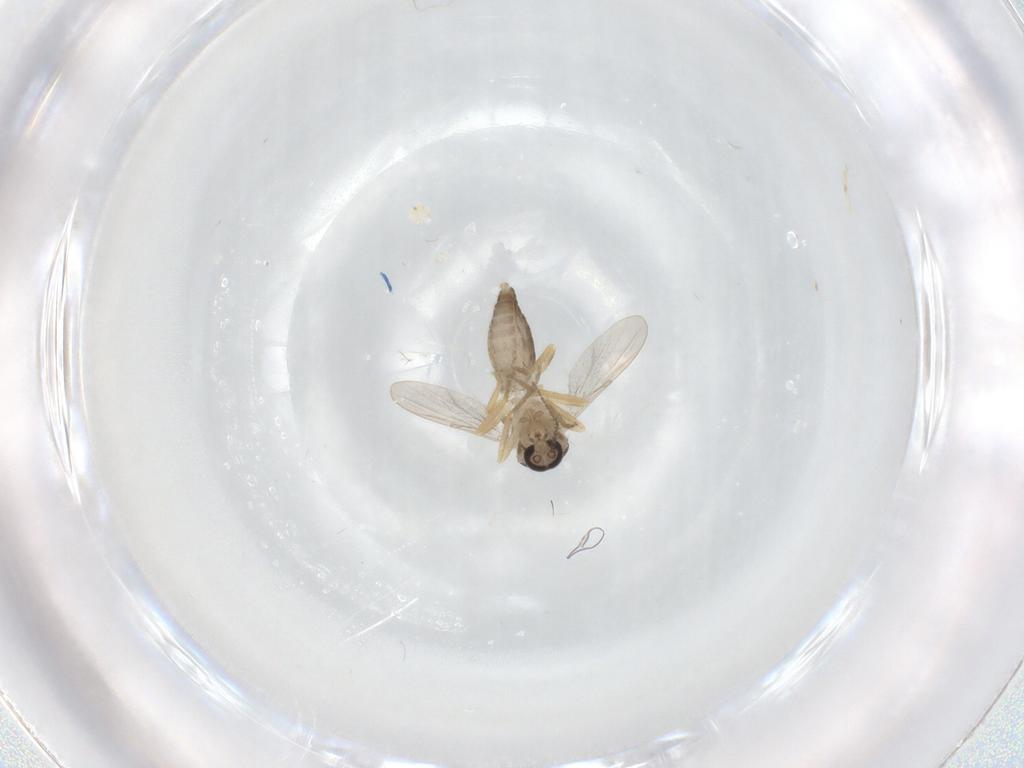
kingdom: Animalia
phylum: Arthropoda
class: Insecta
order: Diptera
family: Ceratopogonidae
